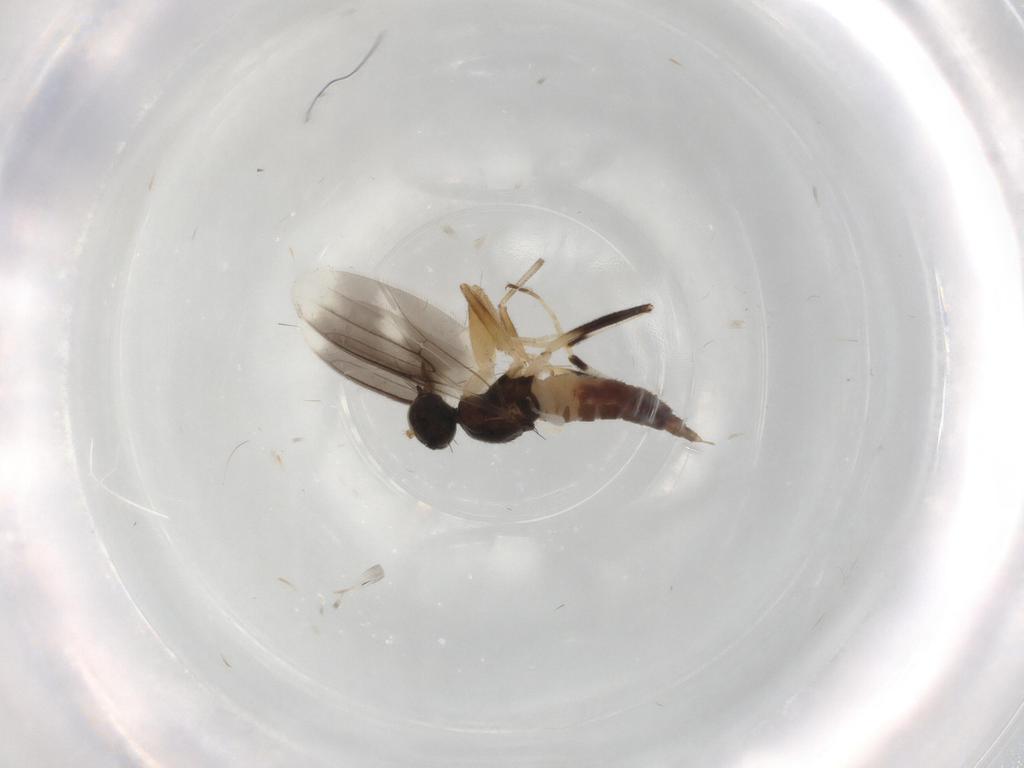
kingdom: Animalia
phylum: Arthropoda
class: Insecta
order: Diptera
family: Hybotidae
